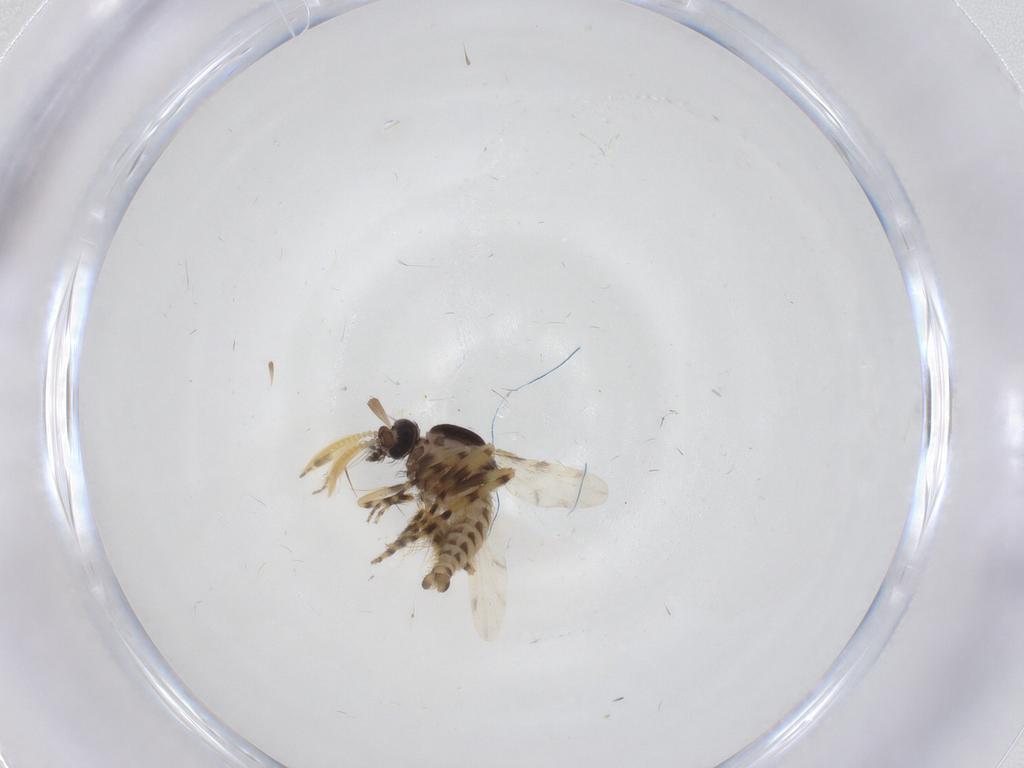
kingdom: Animalia
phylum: Arthropoda
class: Insecta
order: Diptera
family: Ceratopogonidae
